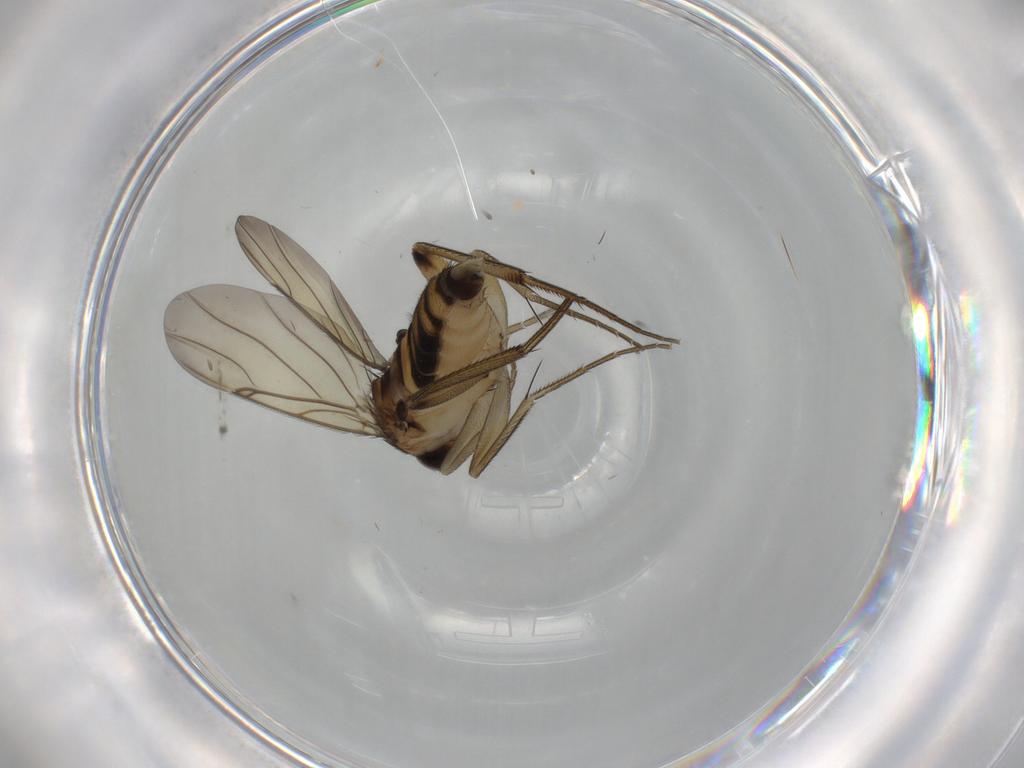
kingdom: Animalia
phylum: Arthropoda
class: Insecta
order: Diptera
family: Phoridae
